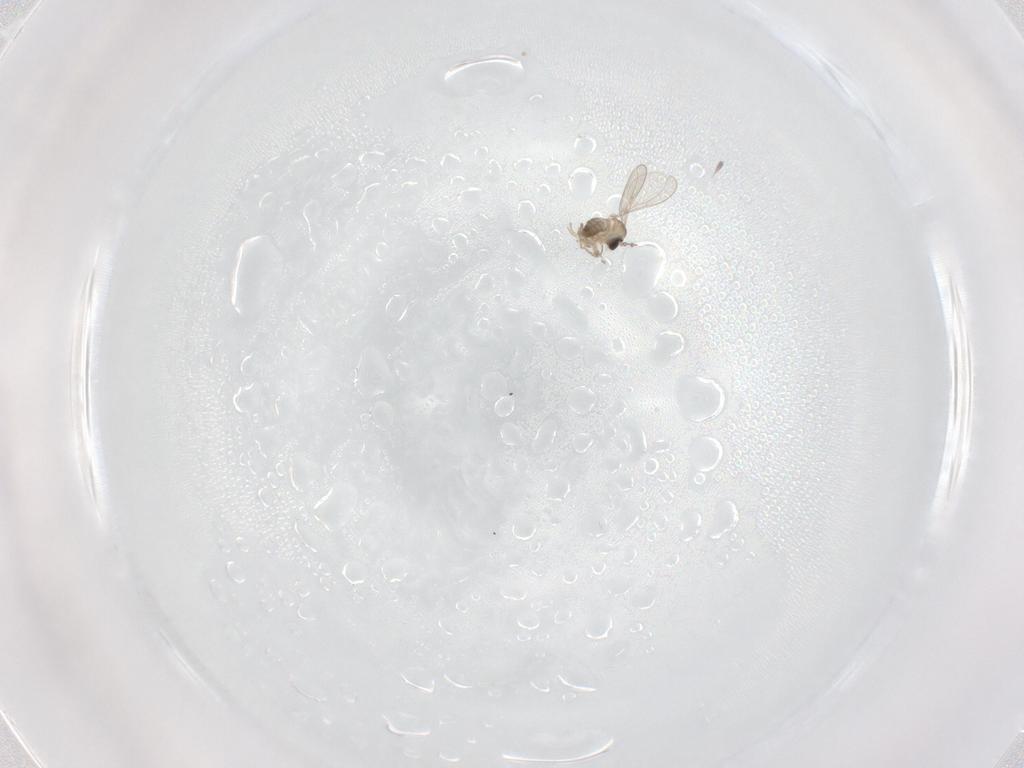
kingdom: Animalia
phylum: Arthropoda
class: Insecta
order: Diptera
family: Cecidomyiidae
